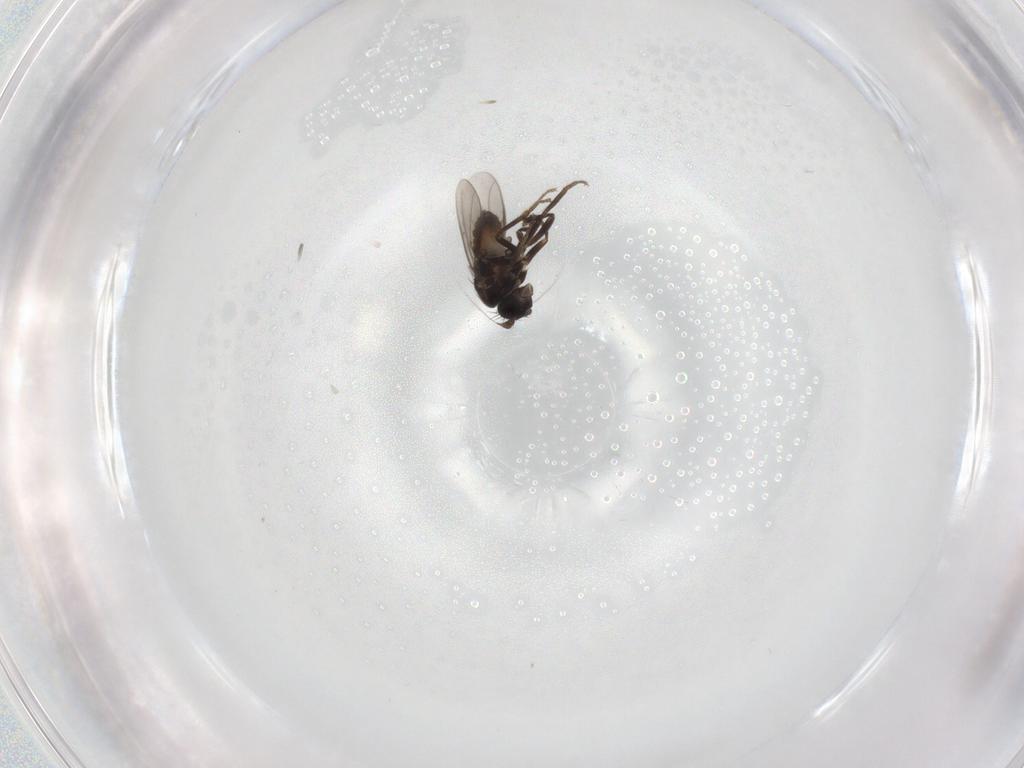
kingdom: Animalia
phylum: Arthropoda
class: Insecta
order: Diptera
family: Sphaeroceridae
